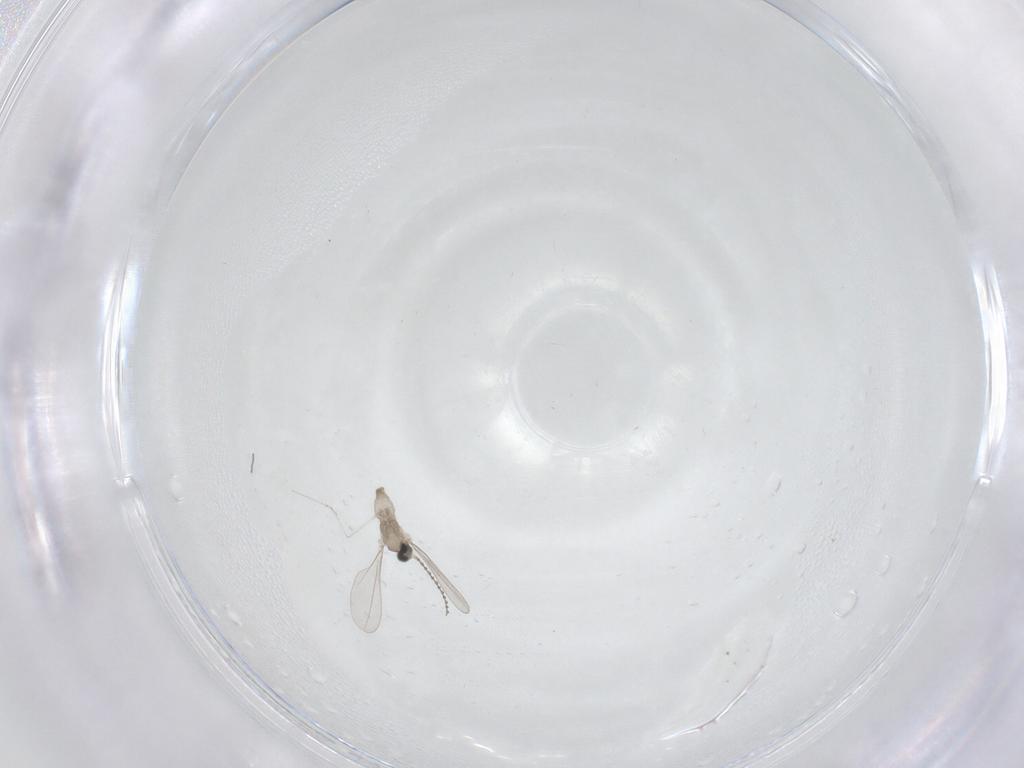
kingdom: Animalia
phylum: Arthropoda
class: Insecta
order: Diptera
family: Cecidomyiidae
